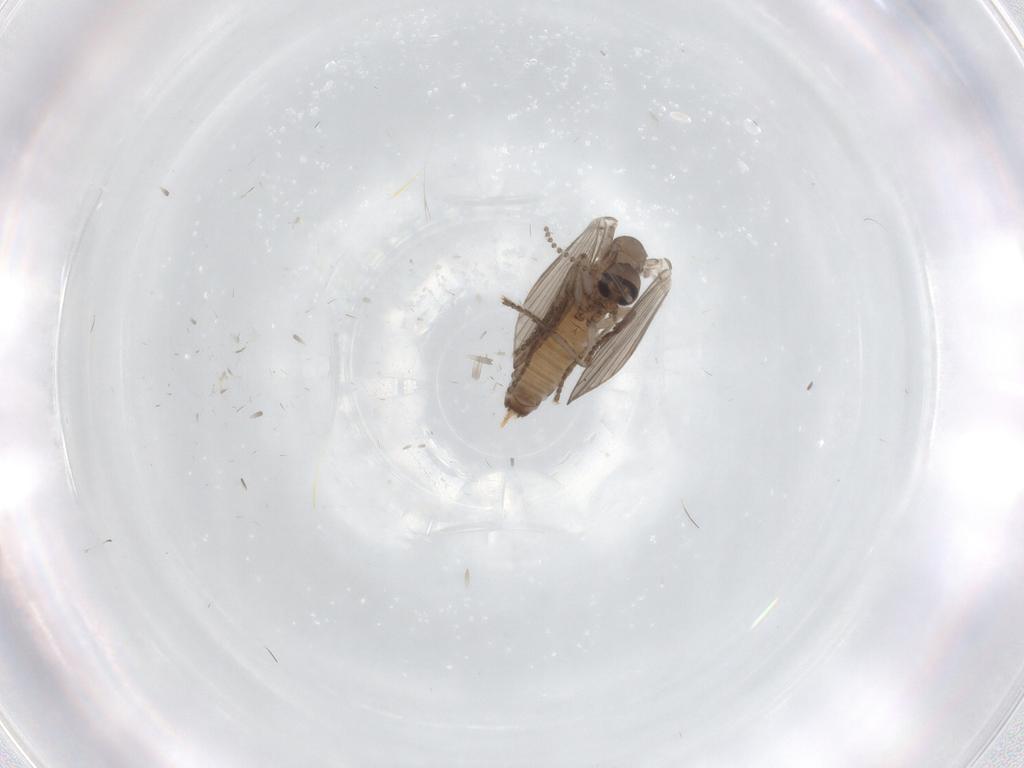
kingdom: Animalia
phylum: Arthropoda
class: Insecta
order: Diptera
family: Psychodidae
